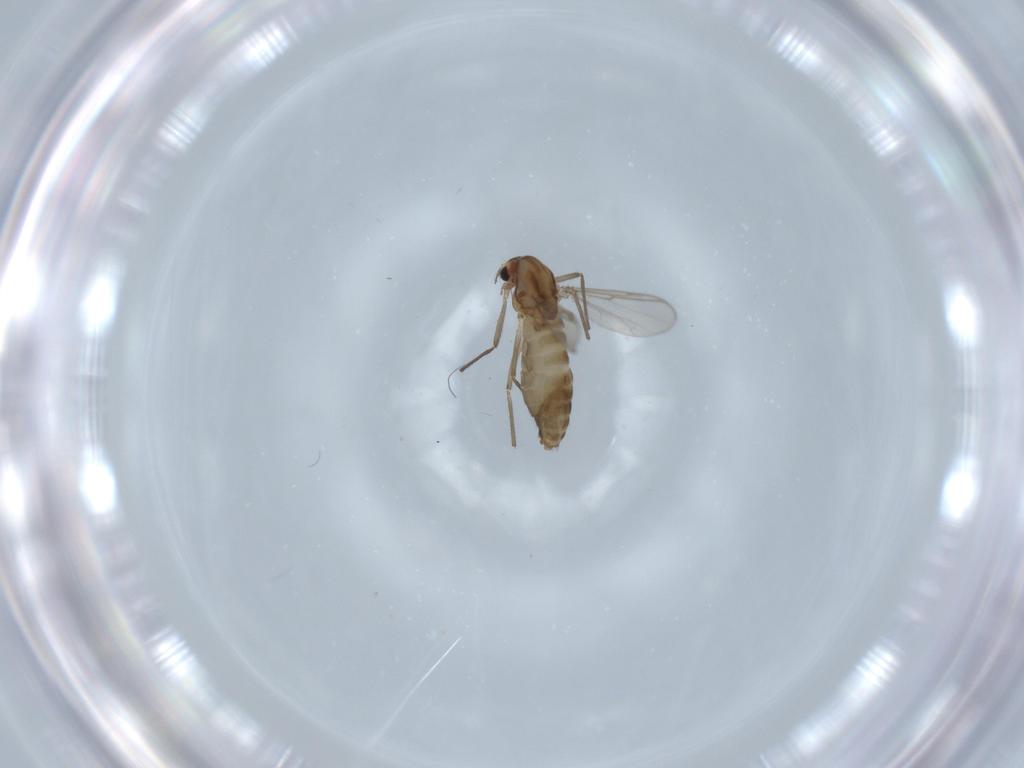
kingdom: Animalia
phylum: Arthropoda
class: Insecta
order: Diptera
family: Chironomidae
